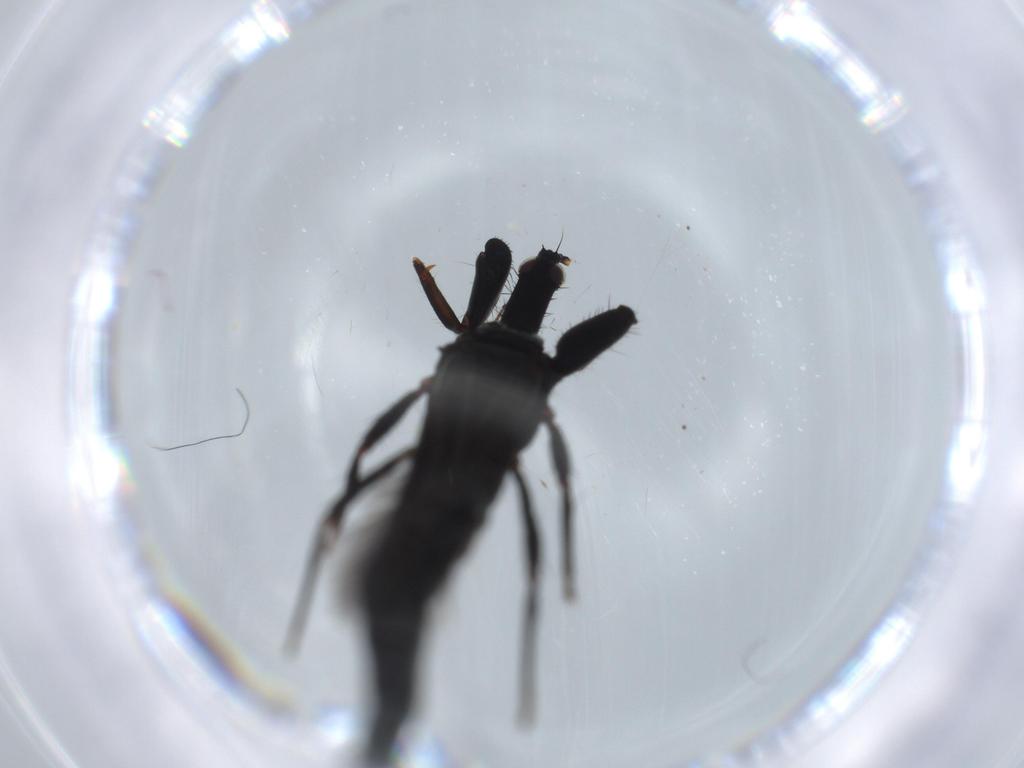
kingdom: Animalia
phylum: Arthropoda
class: Insecta
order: Thysanoptera
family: Phlaeothripidae
